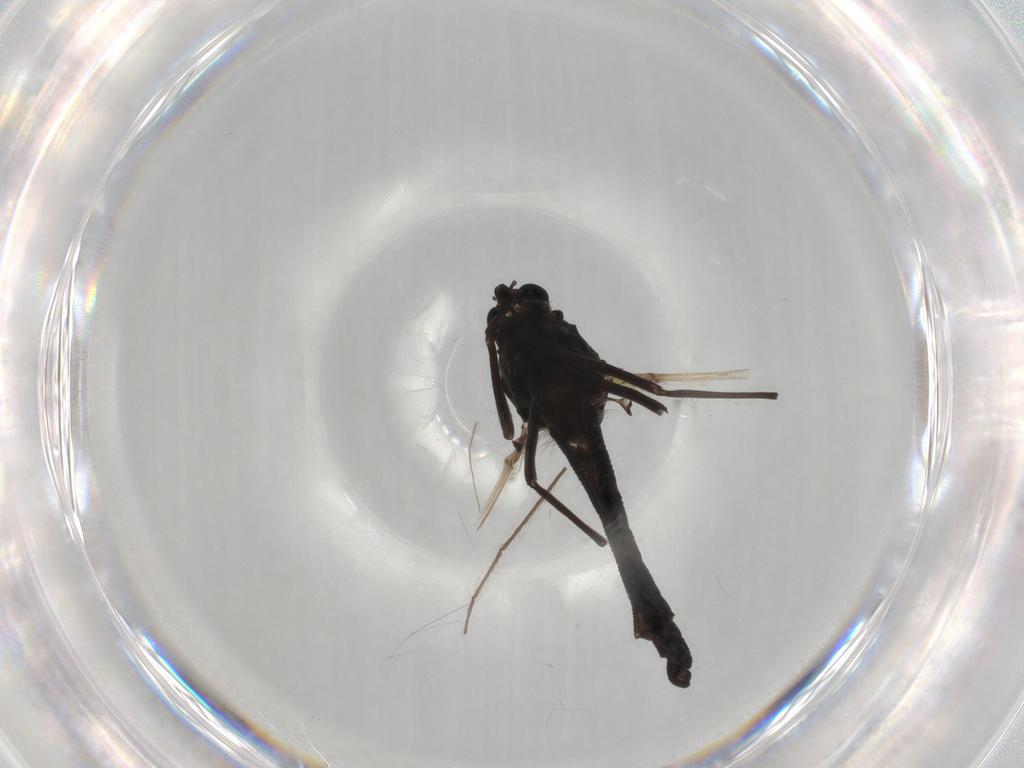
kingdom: Animalia
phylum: Arthropoda
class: Insecta
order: Diptera
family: Chironomidae
